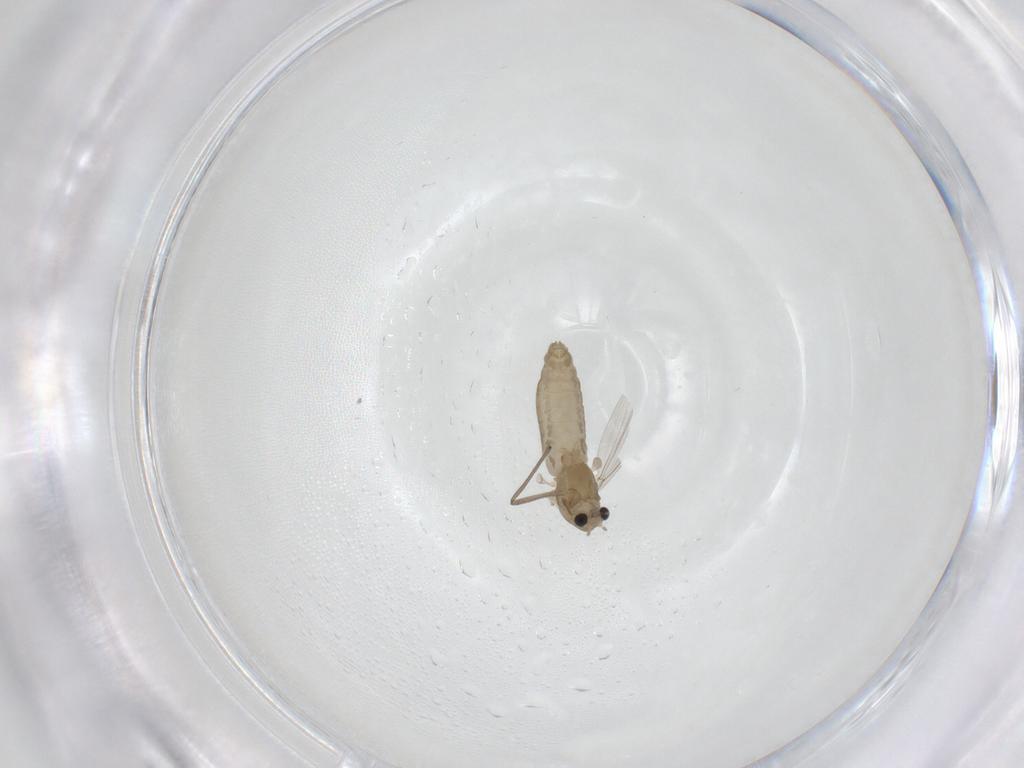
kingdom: Animalia
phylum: Arthropoda
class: Insecta
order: Diptera
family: Chironomidae
